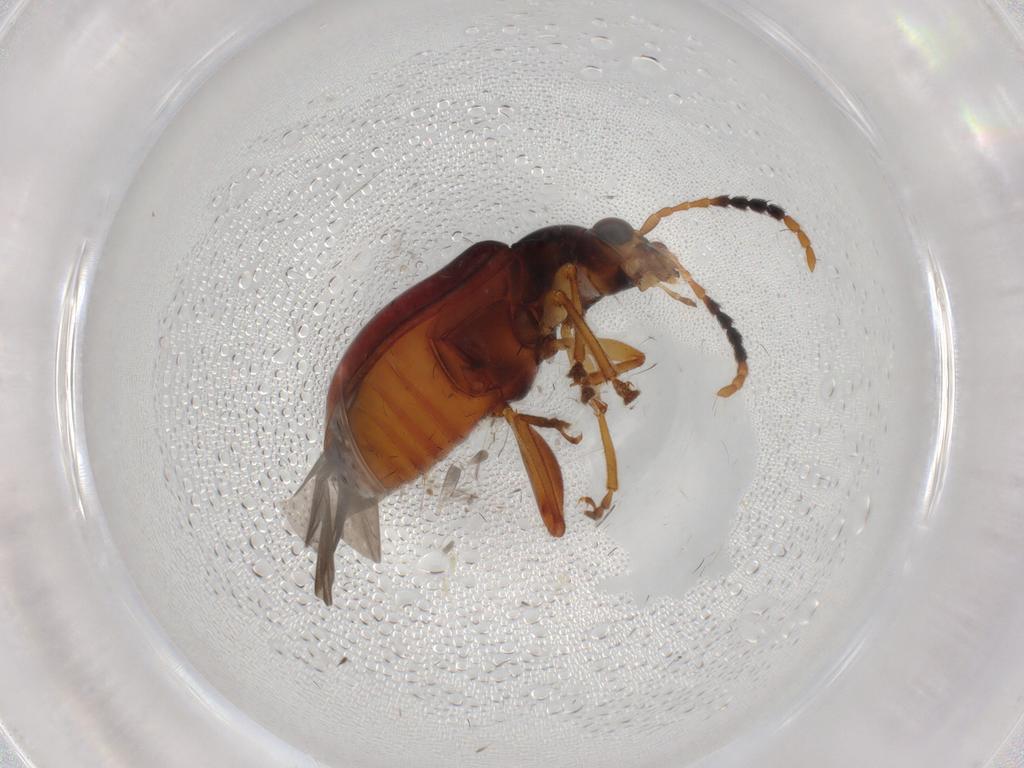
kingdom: Animalia
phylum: Arthropoda
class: Insecta
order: Coleoptera
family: Chrysomelidae
